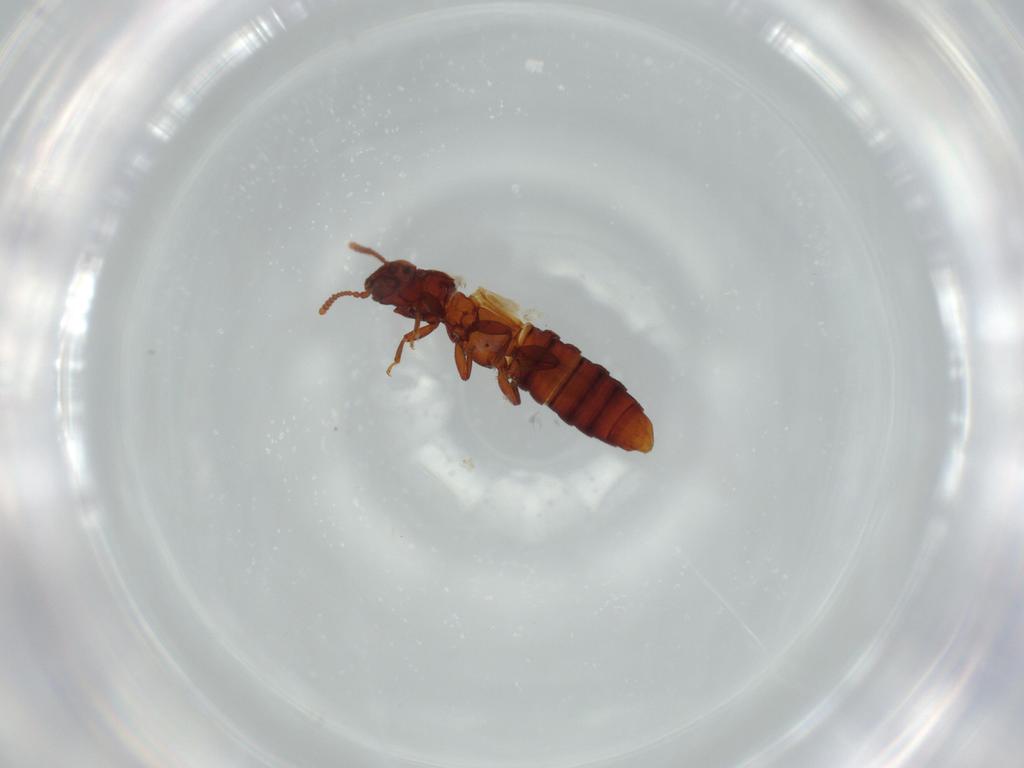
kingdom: Animalia
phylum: Arthropoda
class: Insecta
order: Coleoptera
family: Staphylinidae
